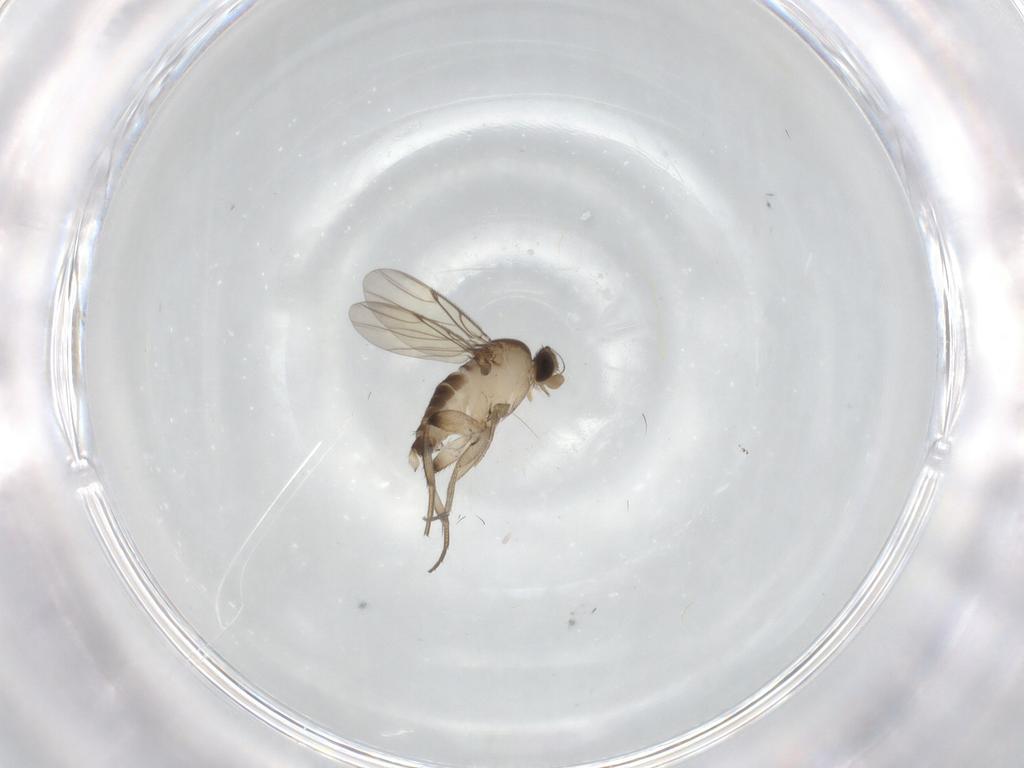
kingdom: Animalia
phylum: Arthropoda
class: Insecta
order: Diptera
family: Phoridae
